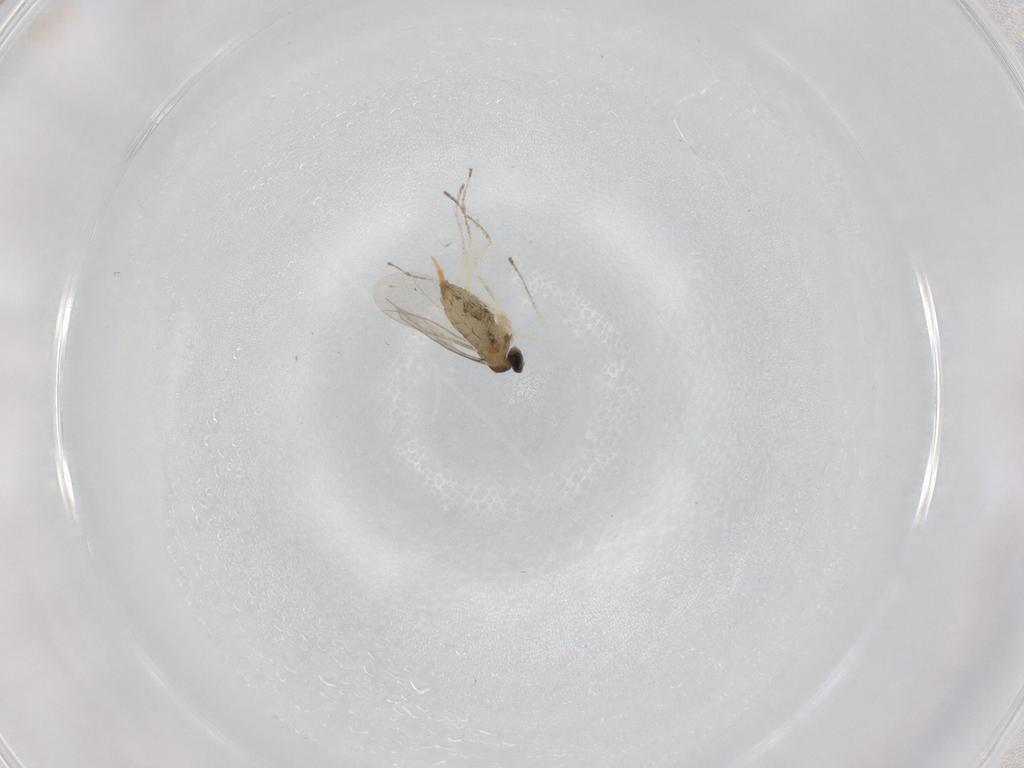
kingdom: Animalia
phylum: Arthropoda
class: Insecta
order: Diptera
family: Cecidomyiidae
